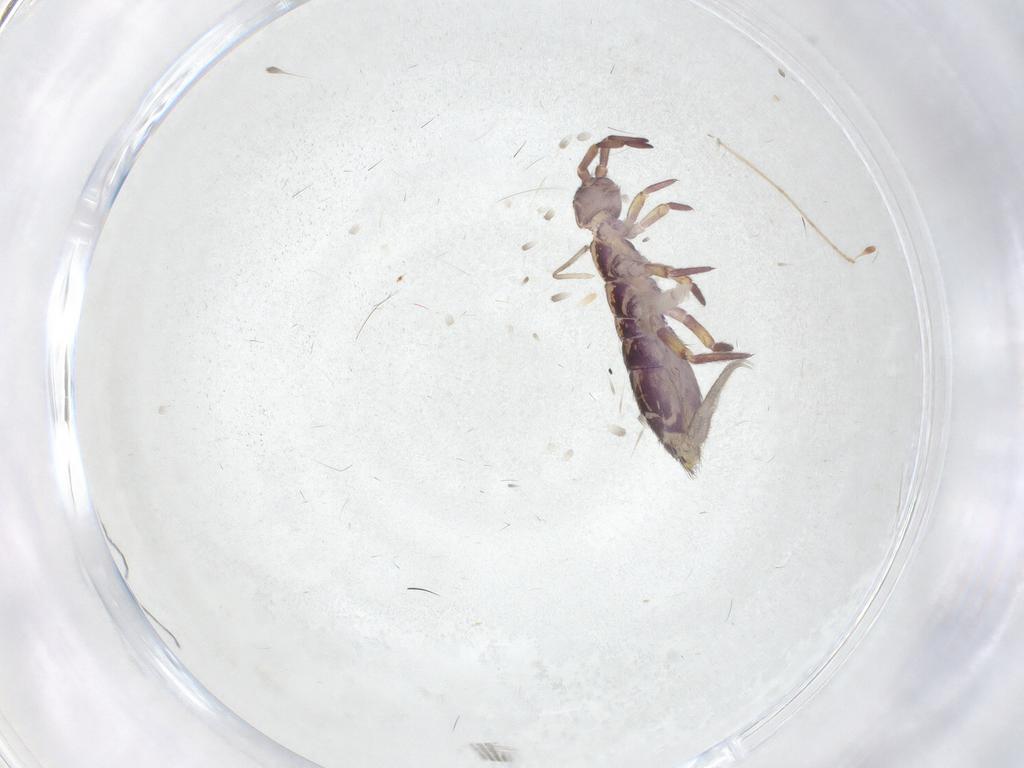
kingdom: Animalia
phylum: Arthropoda
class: Collembola
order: Entomobryomorpha
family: Isotomidae
